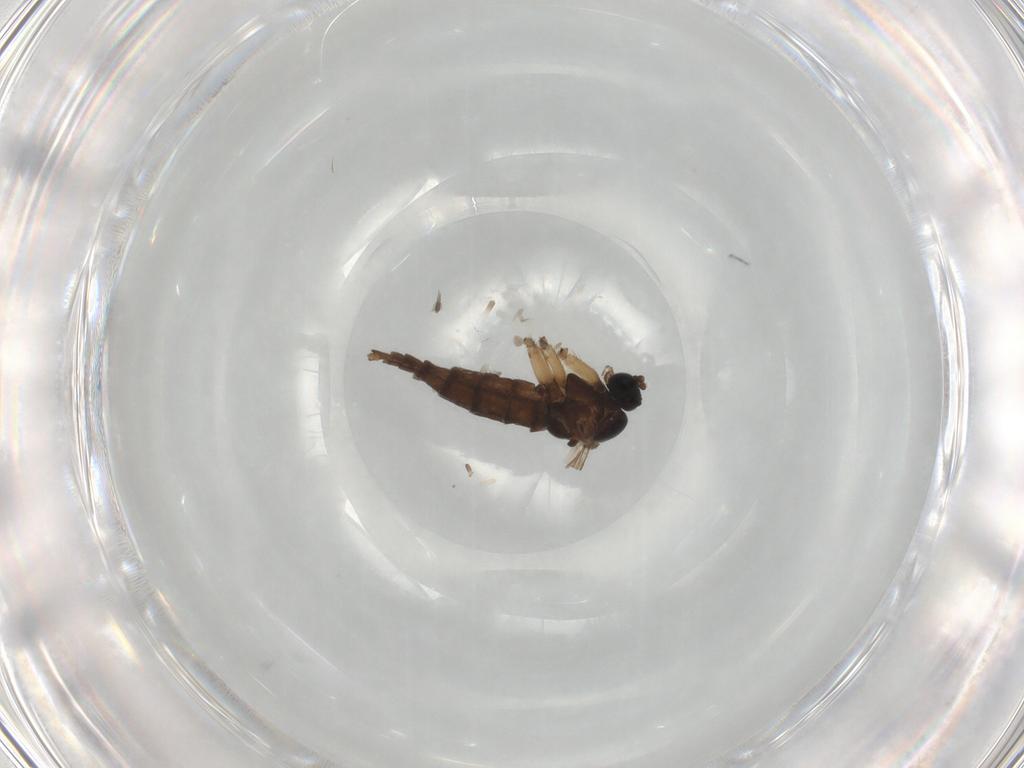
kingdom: Animalia
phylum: Arthropoda
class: Insecta
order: Diptera
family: Sciaridae
